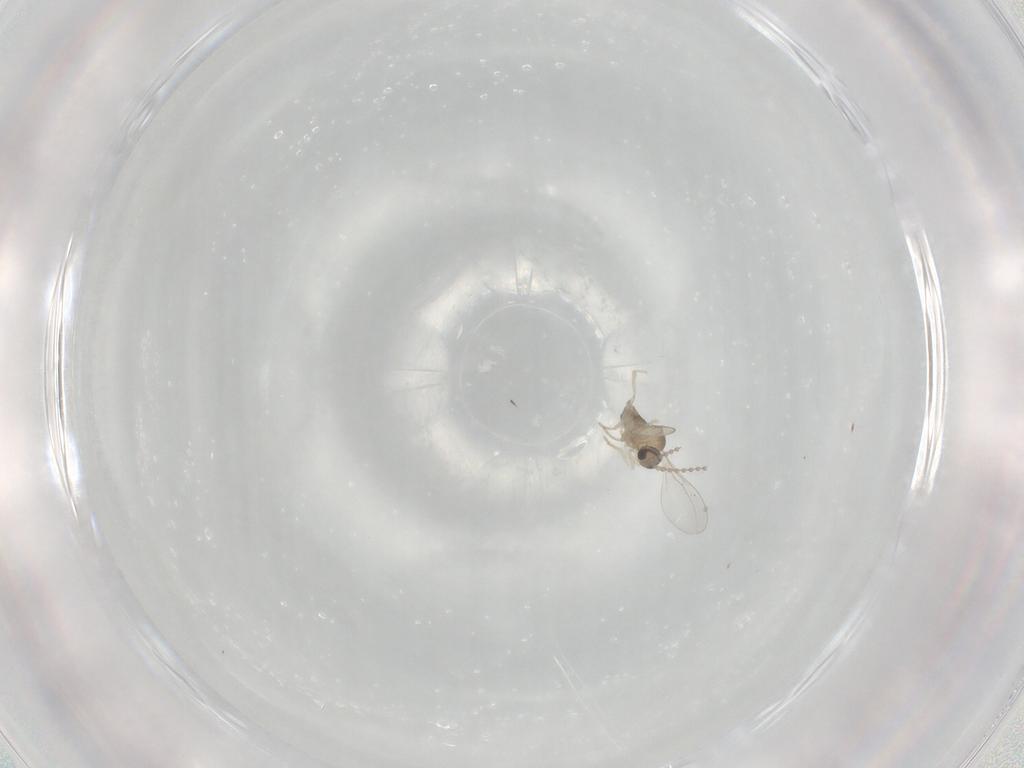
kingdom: Animalia
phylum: Arthropoda
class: Insecta
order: Diptera
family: Cecidomyiidae
